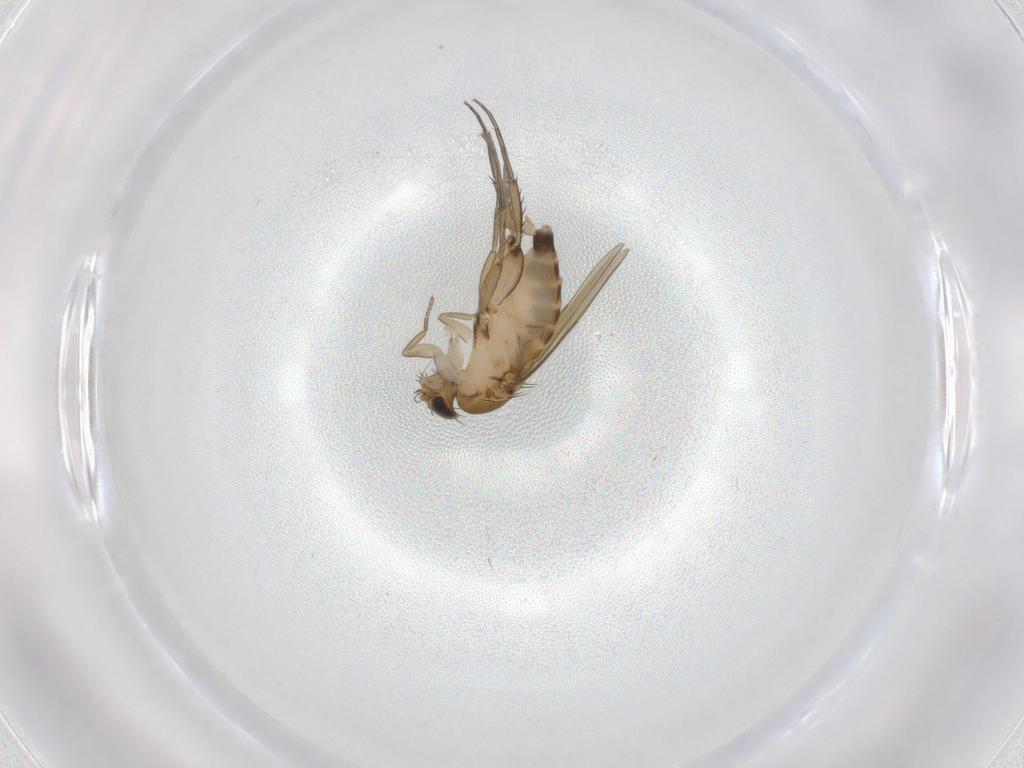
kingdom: Animalia
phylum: Arthropoda
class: Insecta
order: Diptera
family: Phoridae
